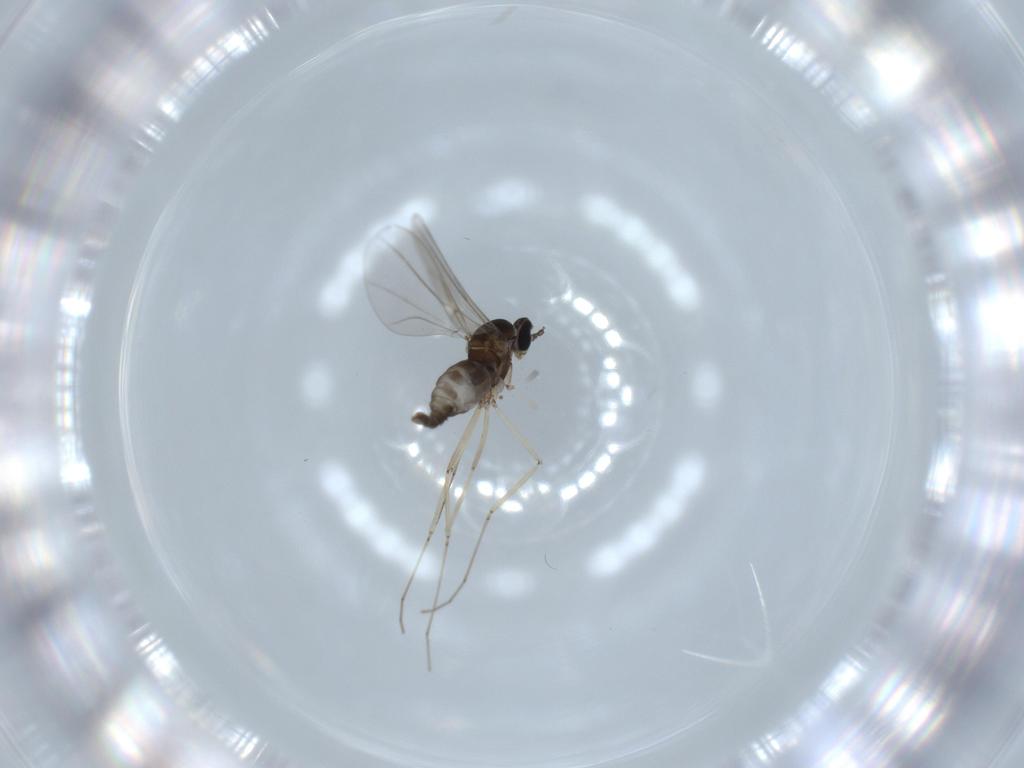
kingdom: Animalia
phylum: Arthropoda
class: Insecta
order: Diptera
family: Cecidomyiidae
